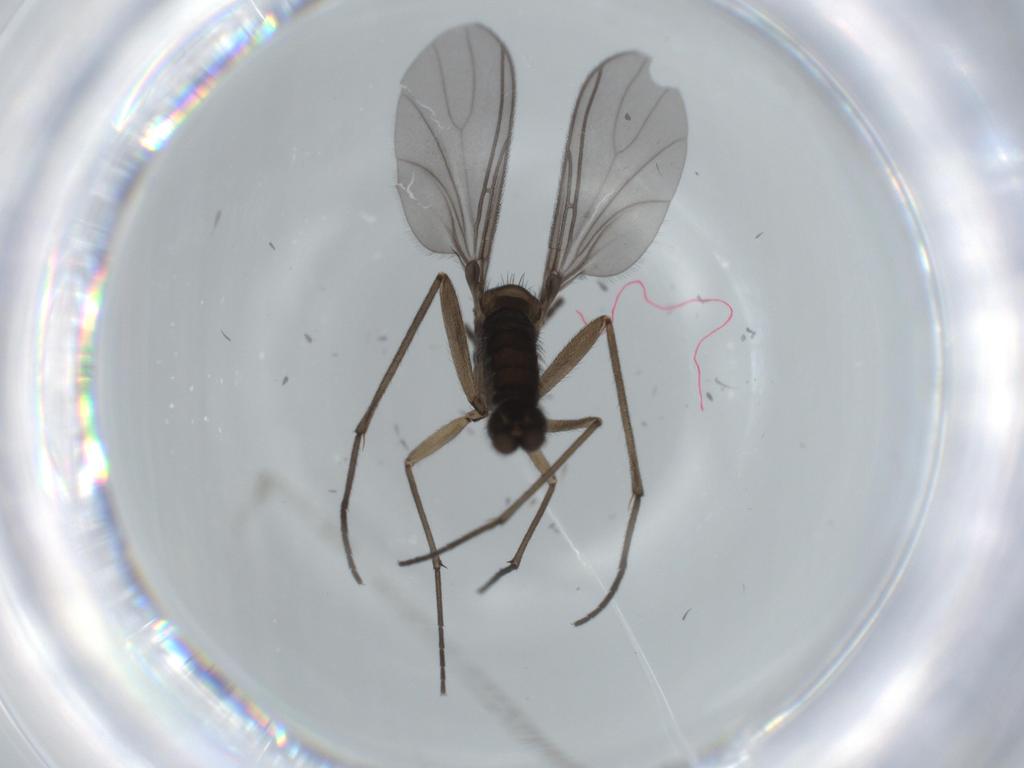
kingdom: Animalia
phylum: Arthropoda
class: Insecta
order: Diptera
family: Sciaridae
